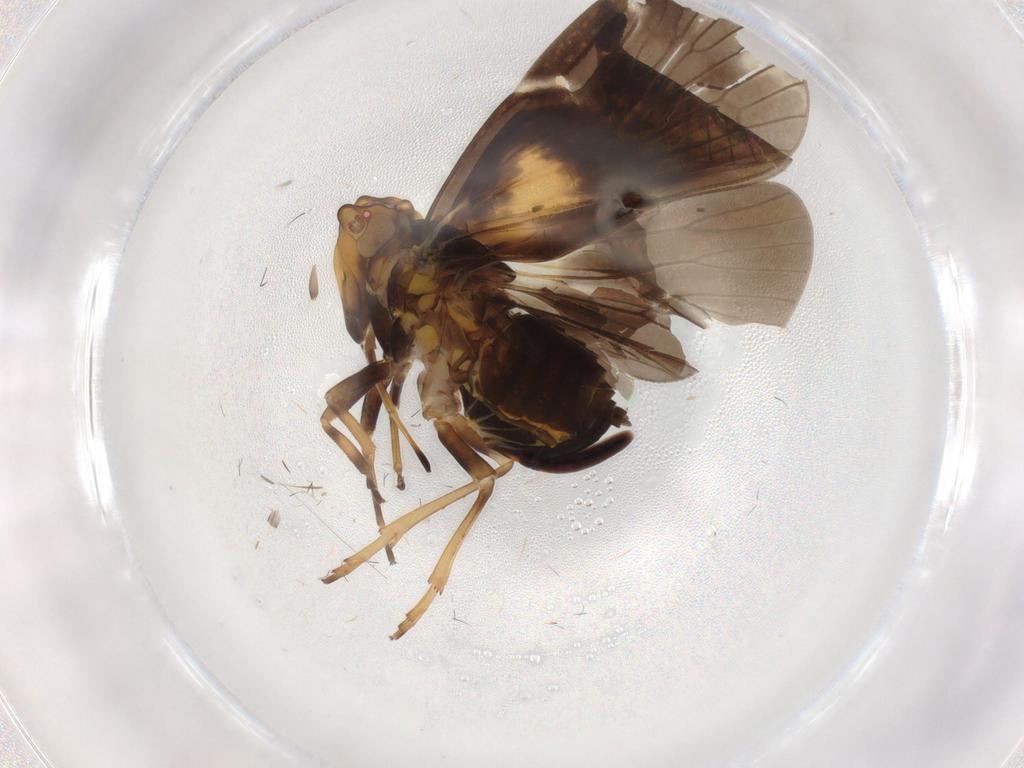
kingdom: Animalia
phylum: Arthropoda
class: Insecta
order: Hemiptera
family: Cixiidae
